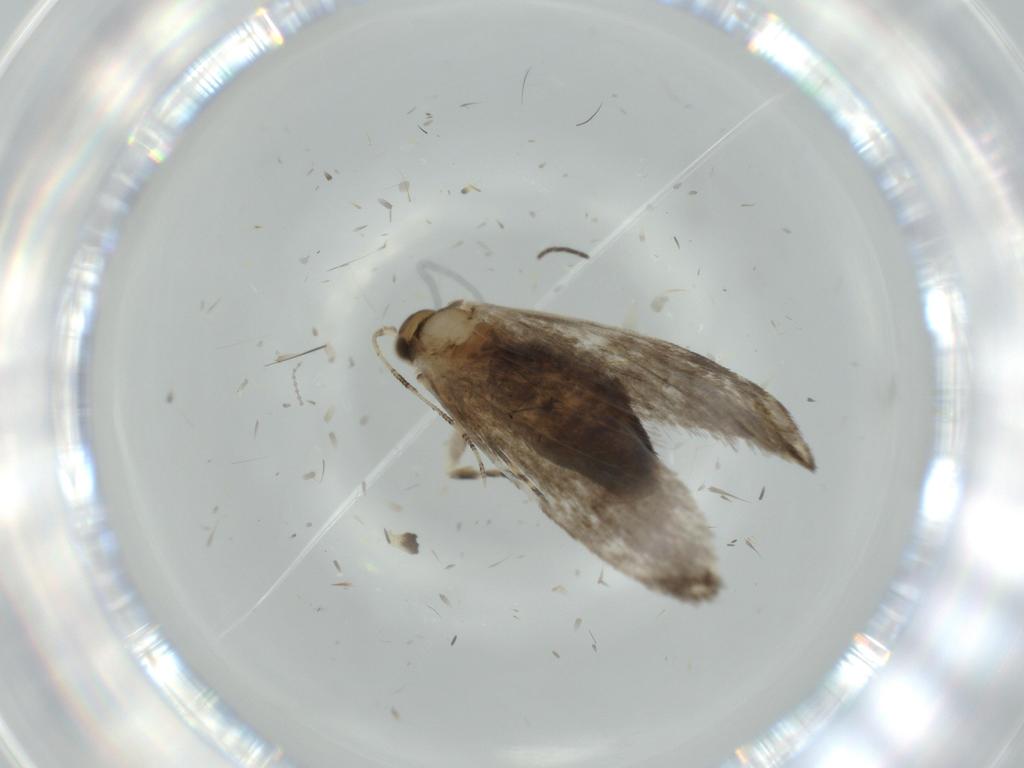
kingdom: Animalia
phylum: Arthropoda
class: Insecta
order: Lepidoptera
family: Tineidae
